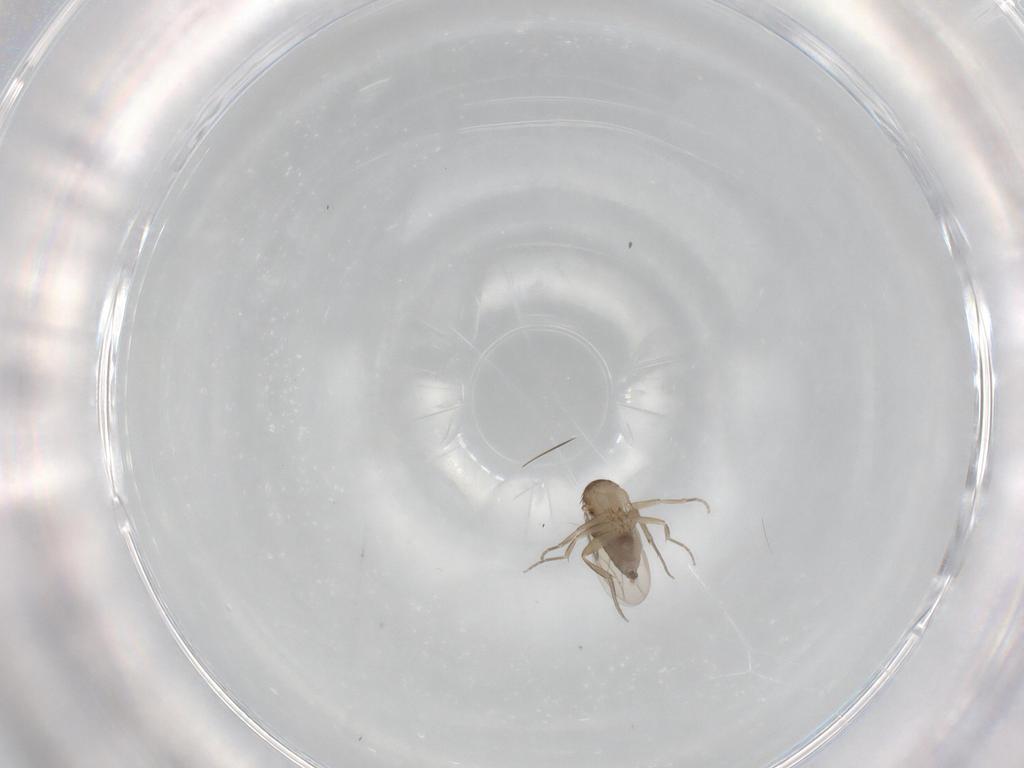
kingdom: Animalia
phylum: Arthropoda
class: Insecta
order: Diptera
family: Phoridae
